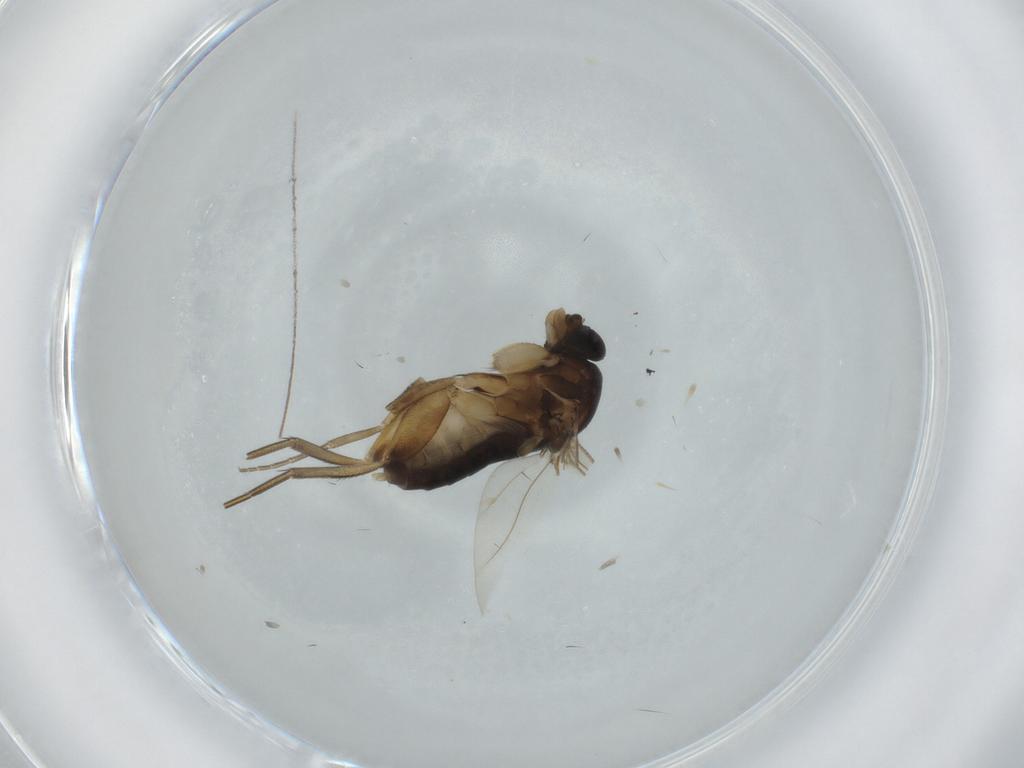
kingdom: Animalia
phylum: Arthropoda
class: Insecta
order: Diptera
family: Phoridae
